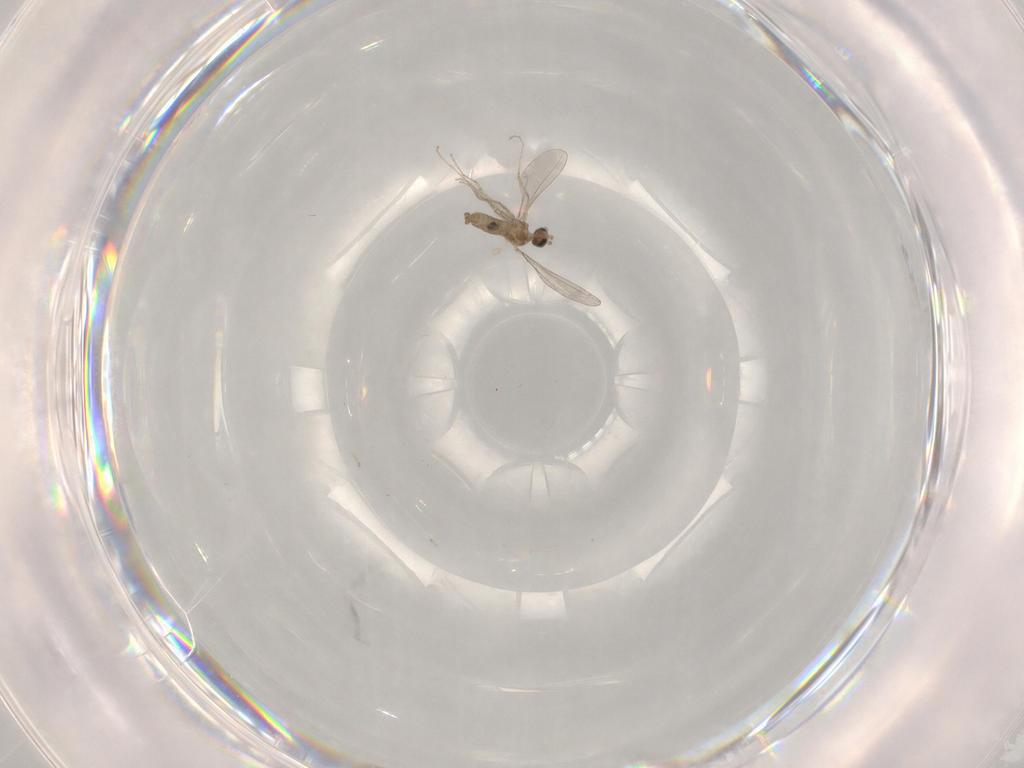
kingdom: Animalia
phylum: Arthropoda
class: Insecta
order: Diptera
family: Sciaridae
